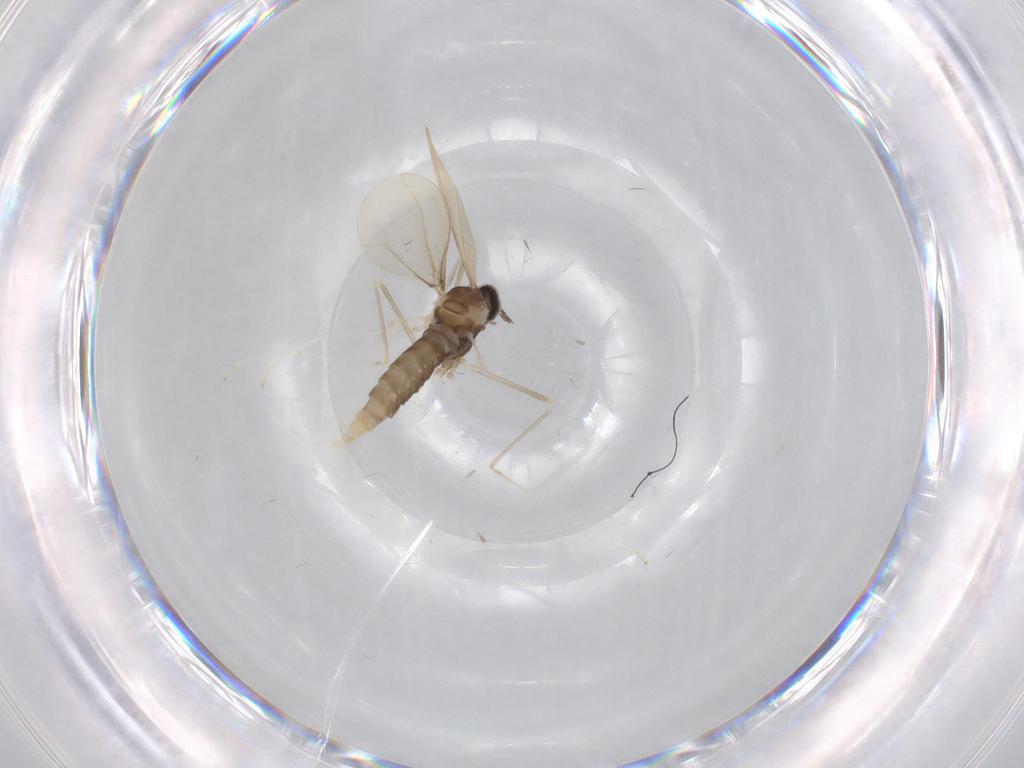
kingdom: Animalia
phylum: Arthropoda
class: Insecta
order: Diptera
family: Cecidomyiidae
